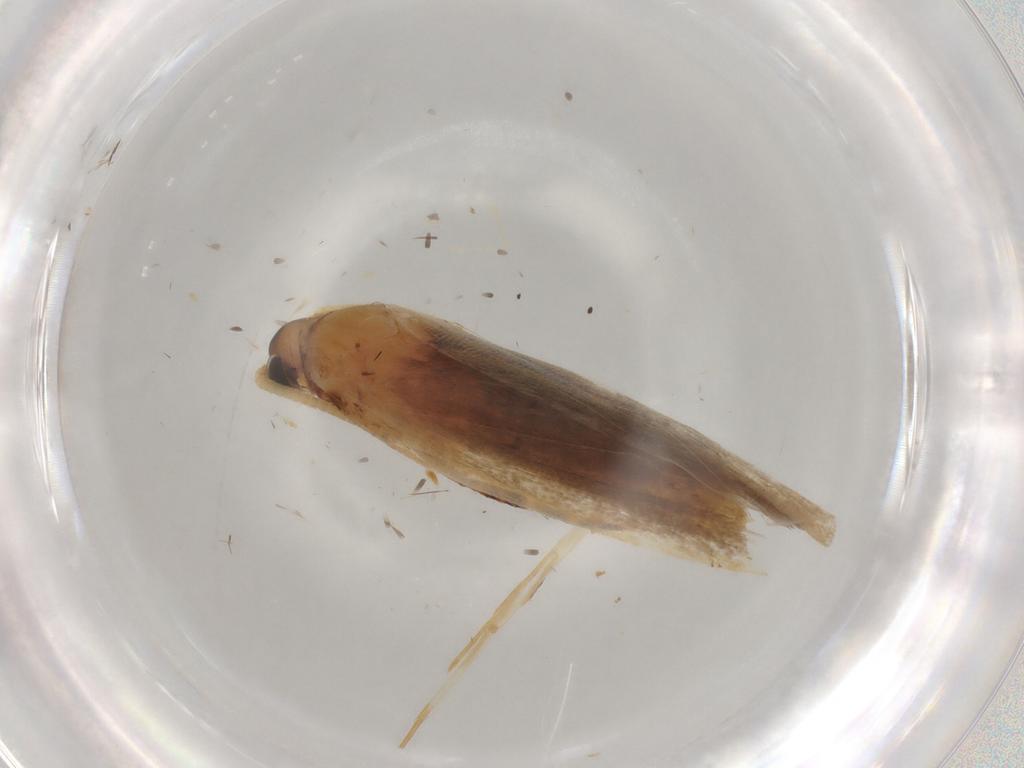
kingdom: Animalia
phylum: Arthropoda
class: Insecta
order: Lepidoptera
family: Lecithoceridae
